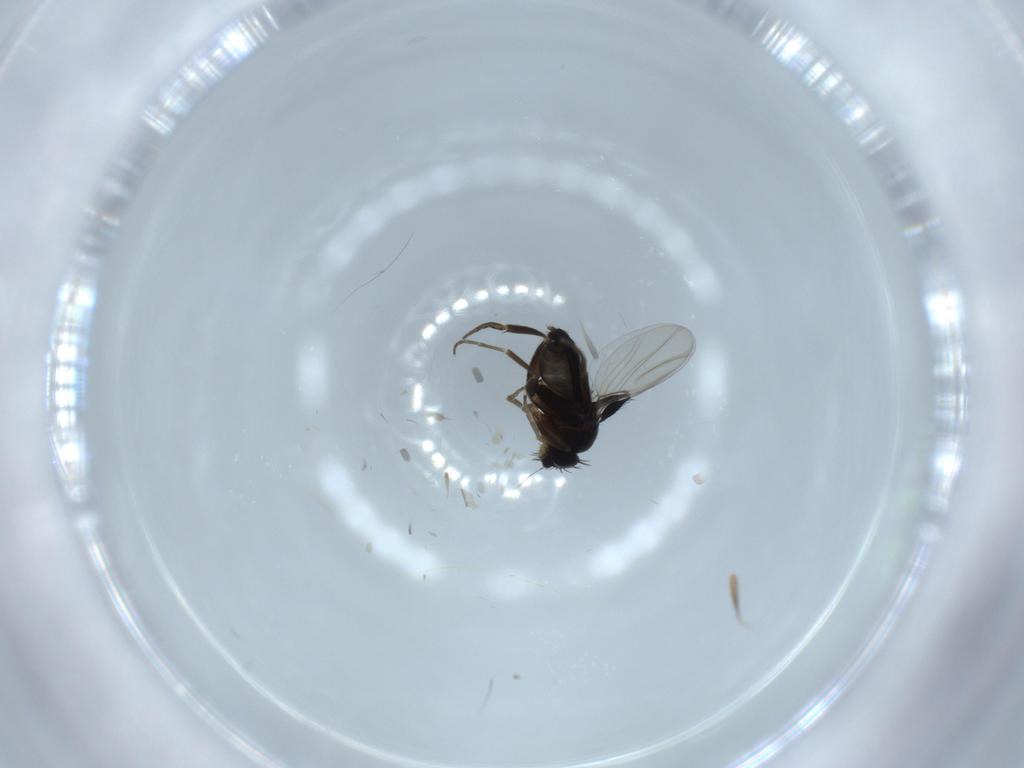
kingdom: Animalia
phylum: Arthropoda
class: Insecta
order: Diptera
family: Phoridae
